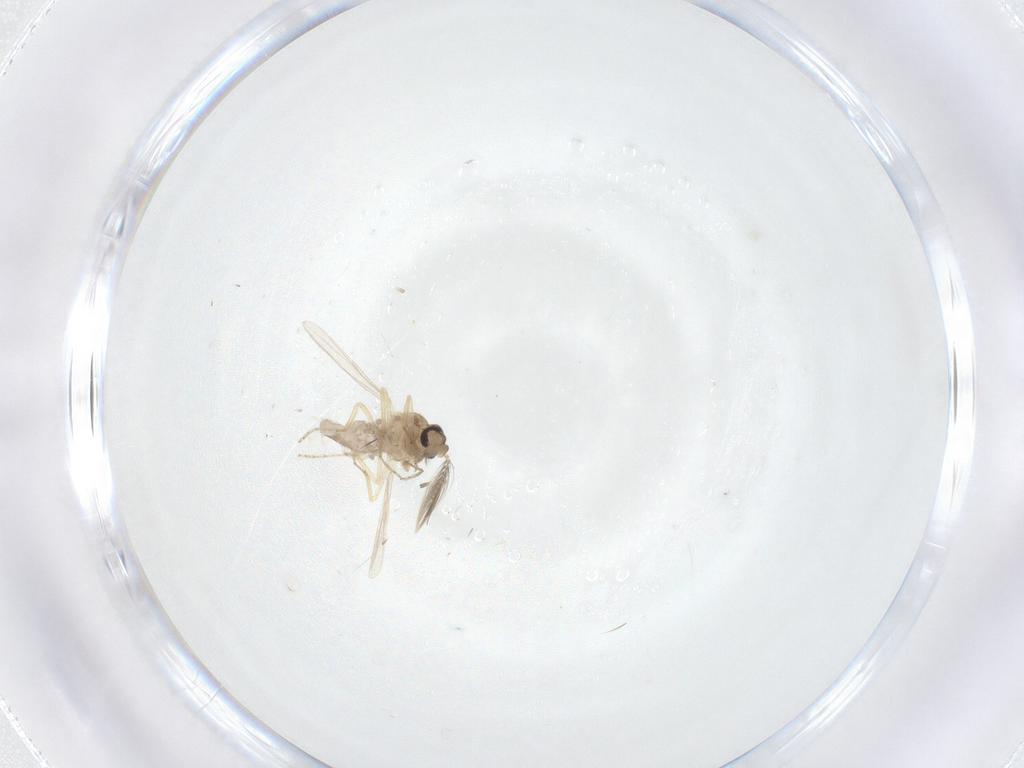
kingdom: Animalia
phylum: Arthropoda
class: Insecta
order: Diptera
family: Ceratopogonidae
